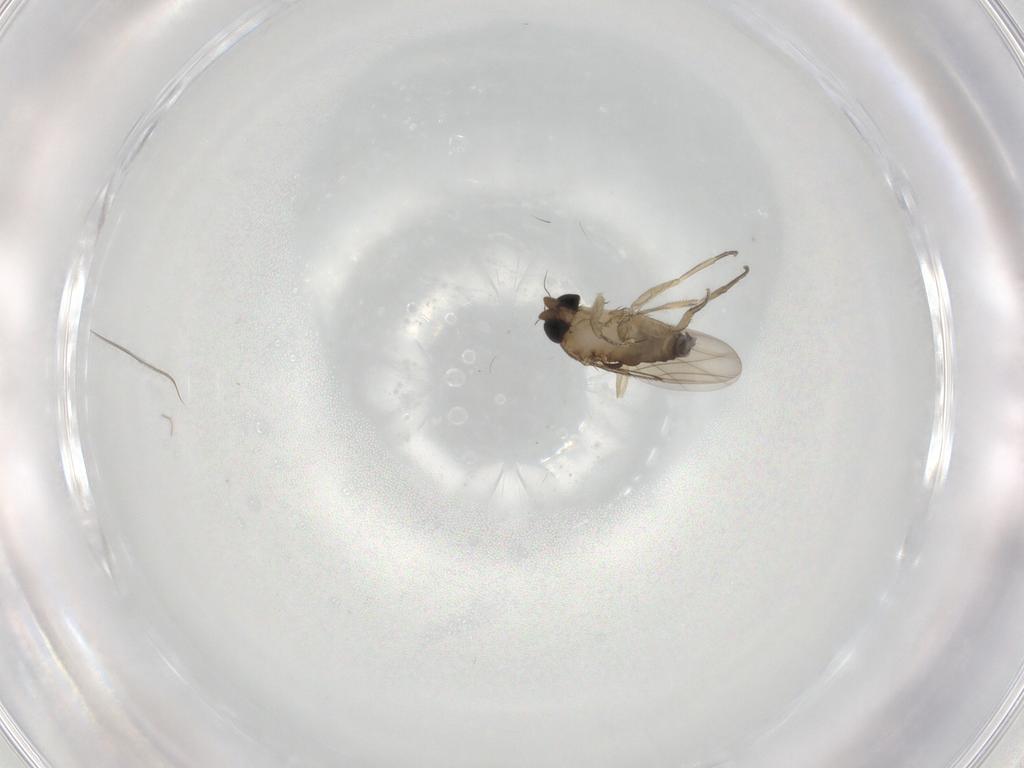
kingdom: Animalia
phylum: Arthropoda
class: Insecta
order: Diptera
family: Phoridae
